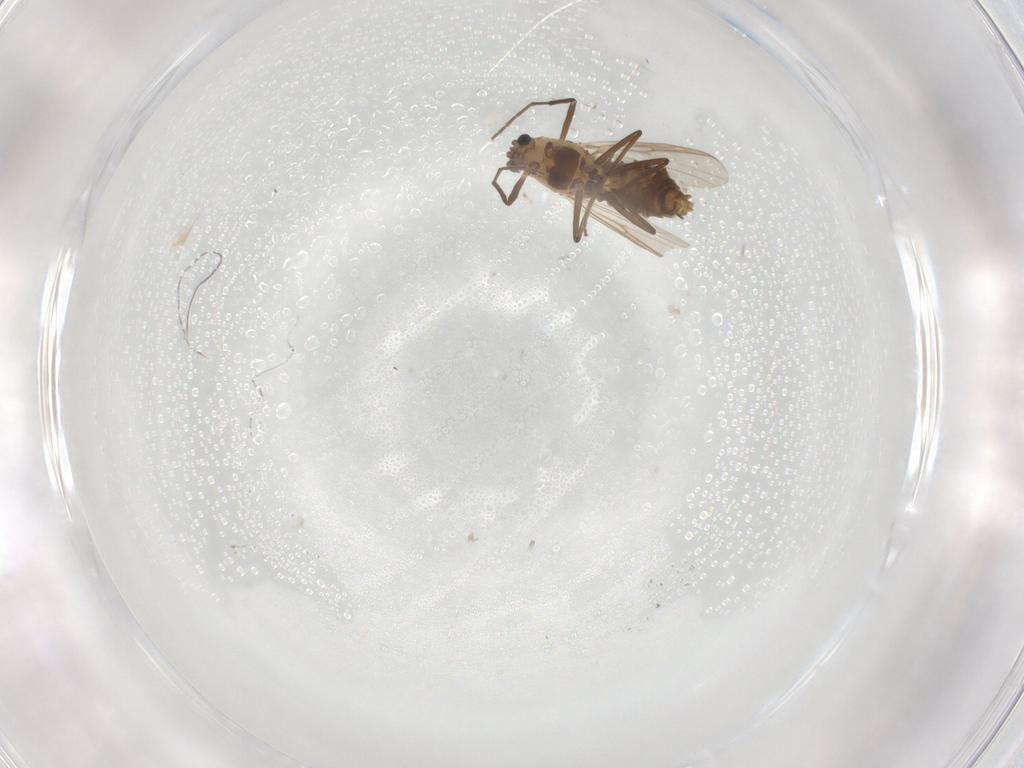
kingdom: Animalia
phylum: Arthropoda
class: Insecta
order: Diptera
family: Chironomidae
